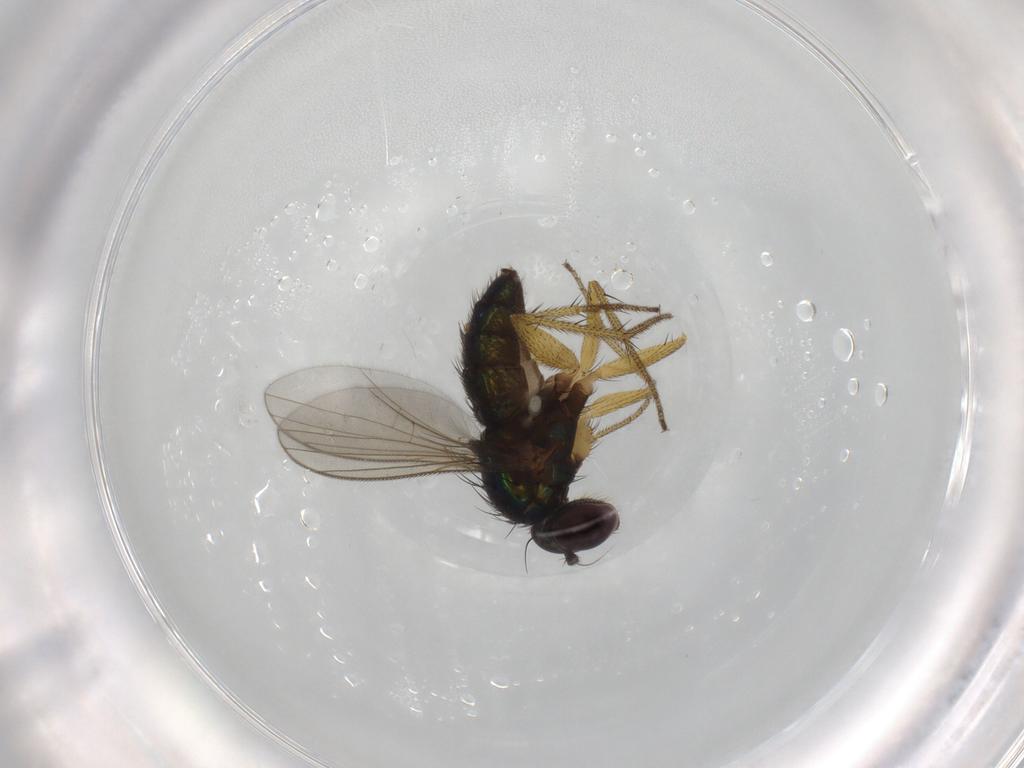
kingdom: Animalia
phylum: Arthropoda
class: Insecta
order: Diptera
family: Chironomidae
